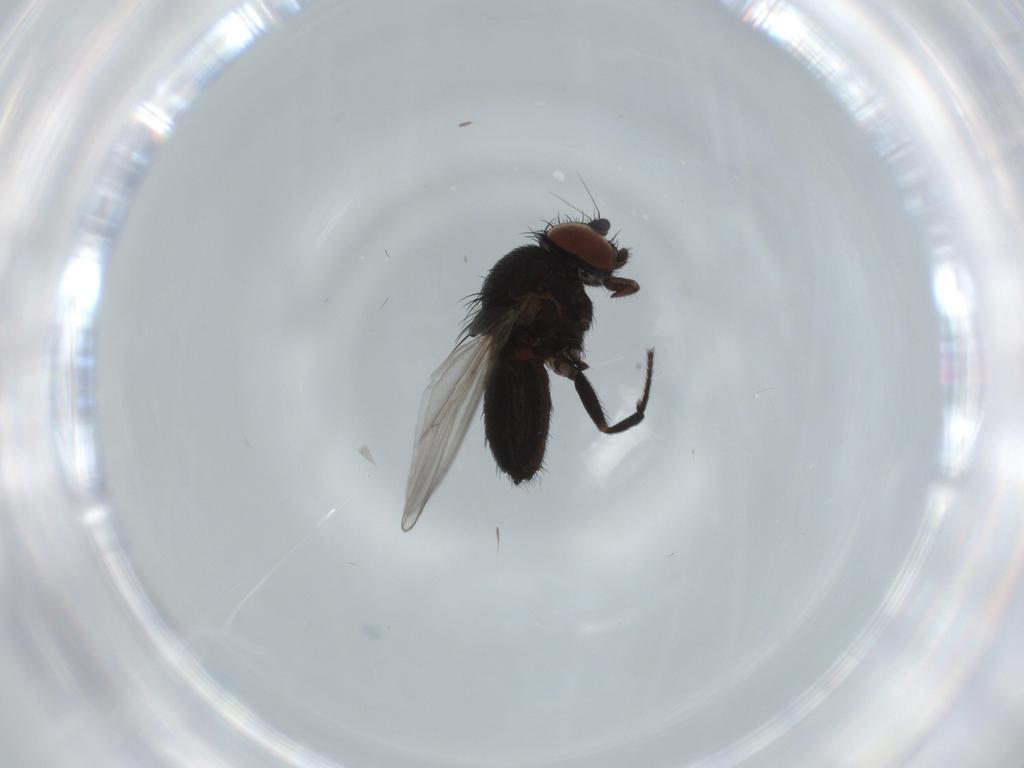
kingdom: Animalia
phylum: Arthropoda
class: Insecta
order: Diptera
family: Milichiidae
